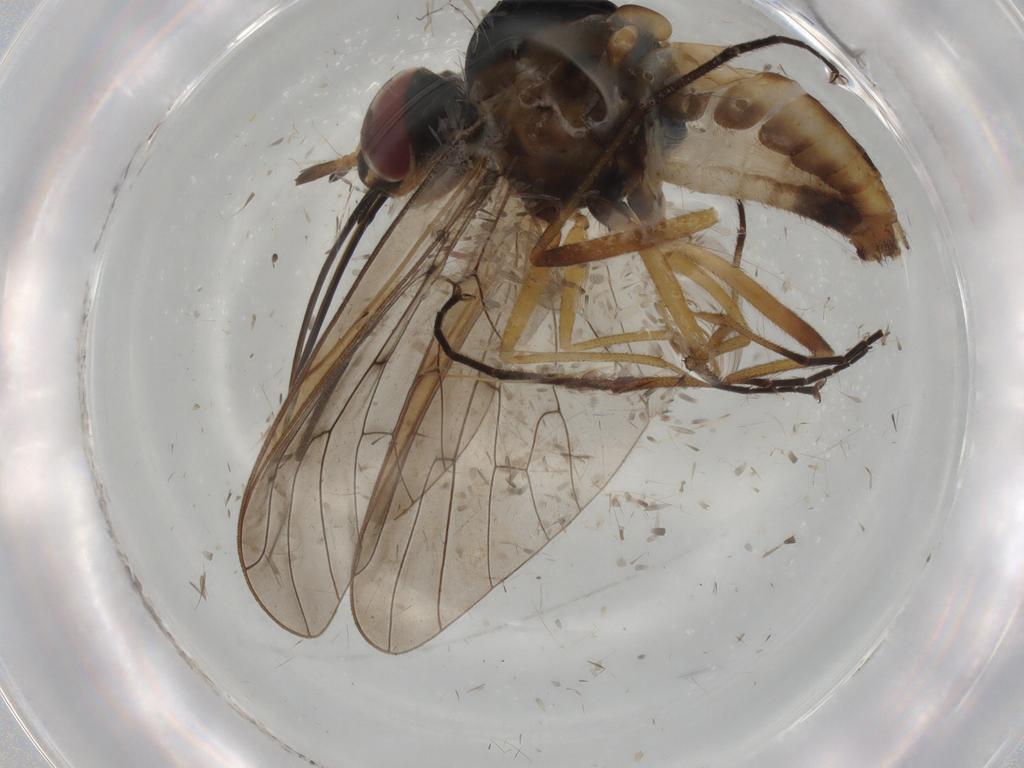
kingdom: Animalia
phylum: Arthropoda
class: Insecta
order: Diptera
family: Bombyliidae
